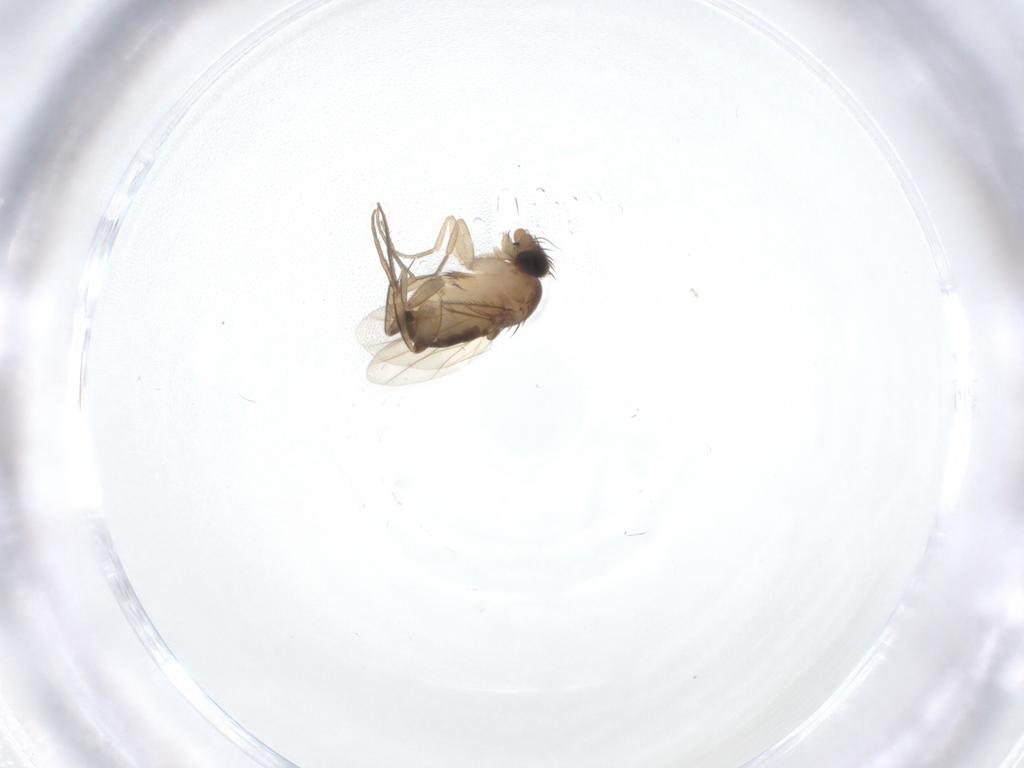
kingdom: Animalia
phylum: Arthropoda
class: Insecta
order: Diptera
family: Phoridae
